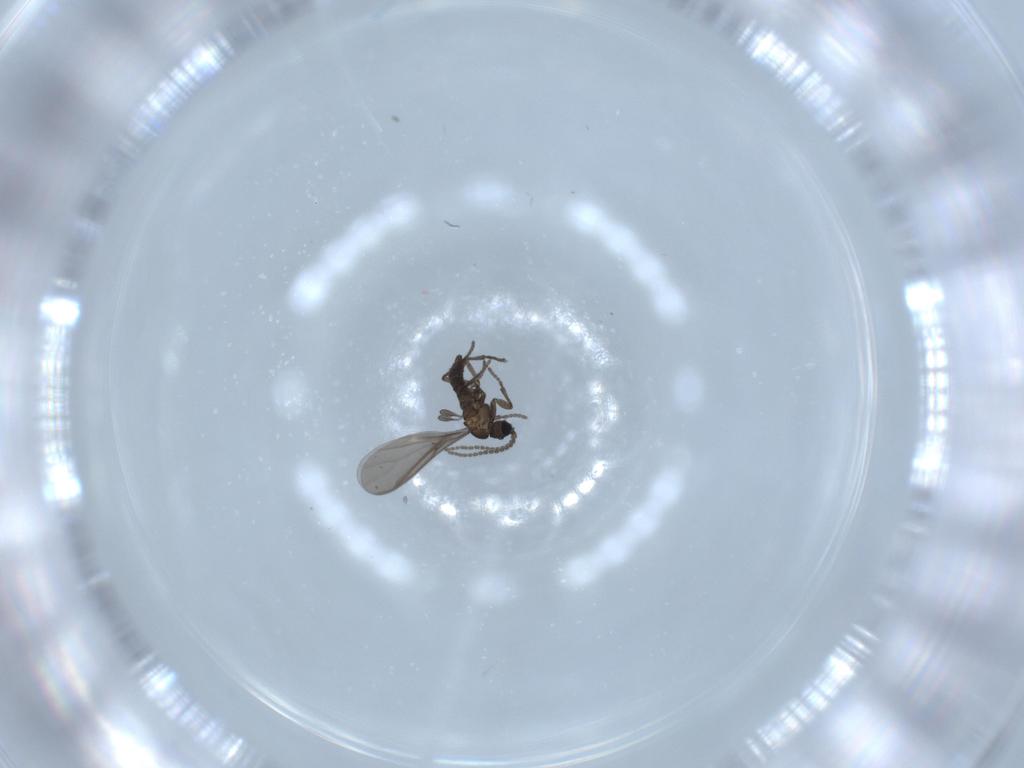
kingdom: Animalia
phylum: Arthropoda
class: Insecta
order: Diptera
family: Cecidomyiidae
